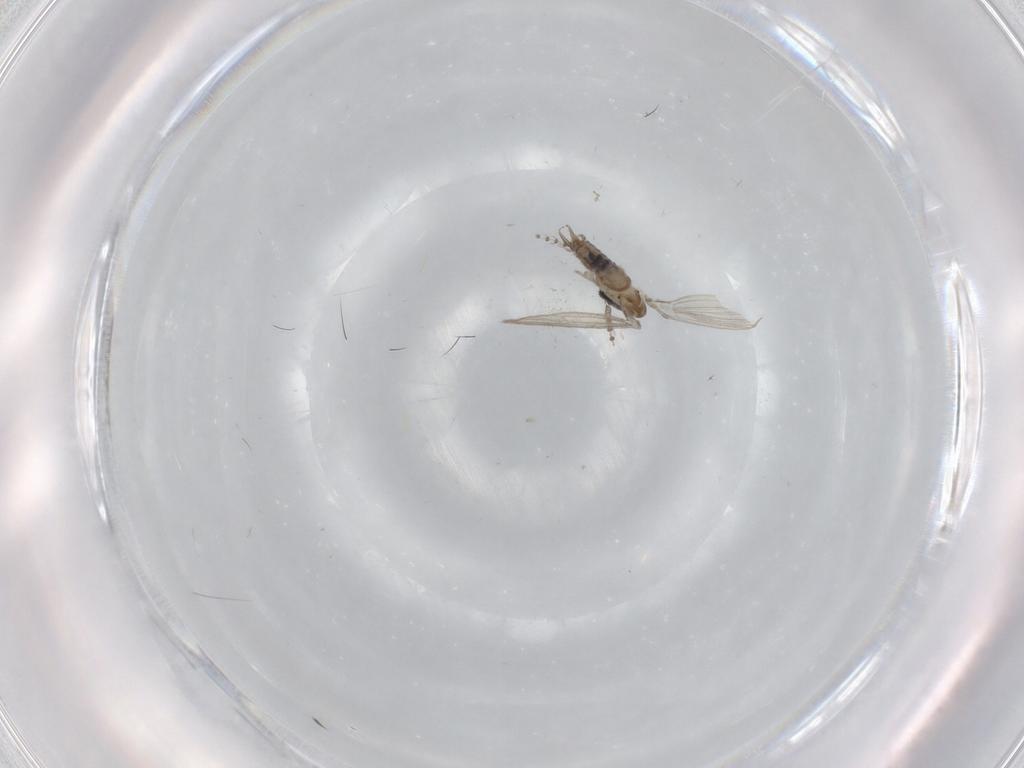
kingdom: Animalia
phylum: Arthropoda
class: Insecta
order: Diptera
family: Psychodidae
